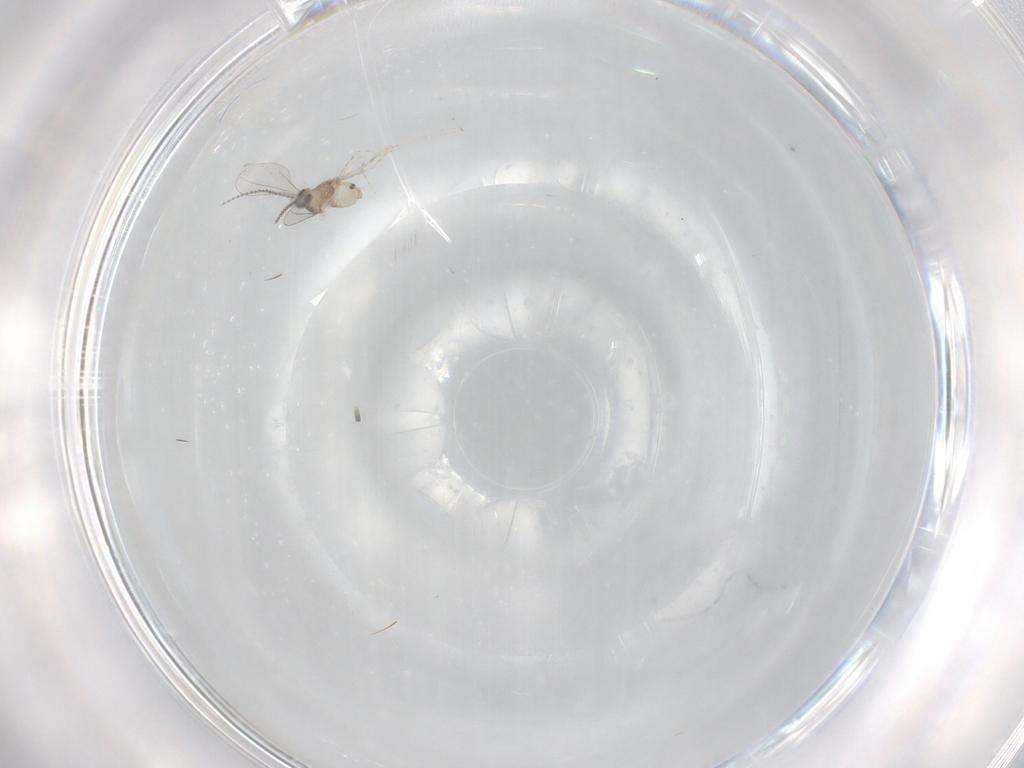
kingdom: Animalia
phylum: Arthropoda
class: Insecta
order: Diptera
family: Cecidomyiidae
